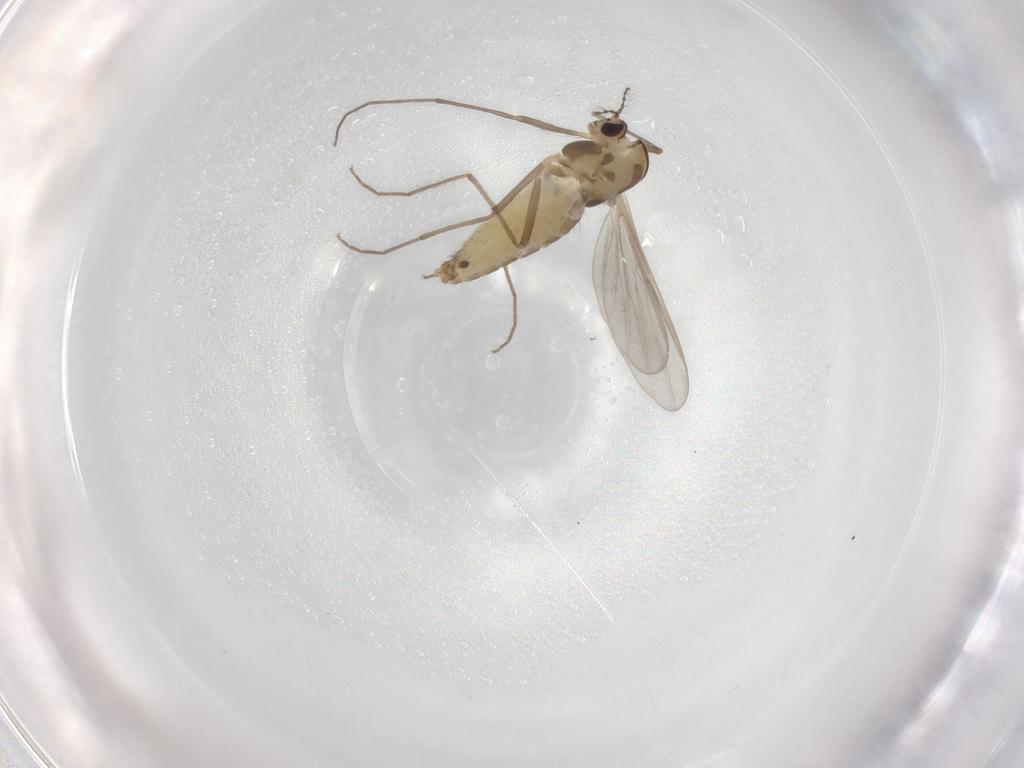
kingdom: Animalia
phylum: Arthropoda
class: Insecta
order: Diptera
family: Chironomidae
